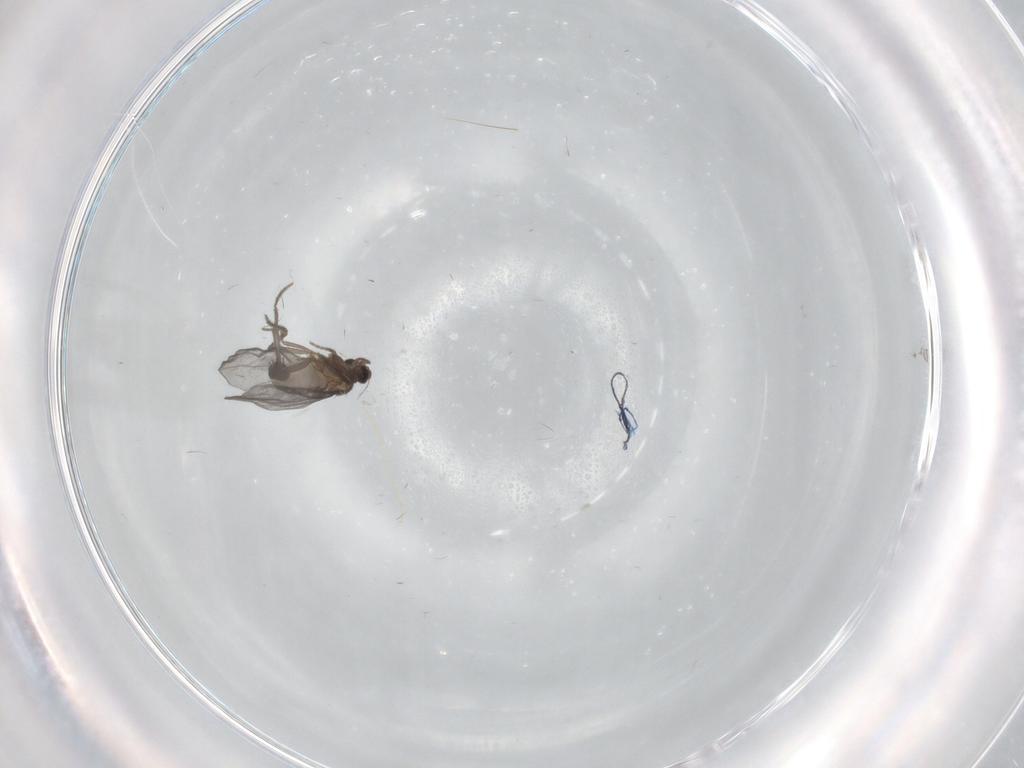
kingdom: Animalia
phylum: Arthropoda
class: Insecta
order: Diptera
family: Phoridae
